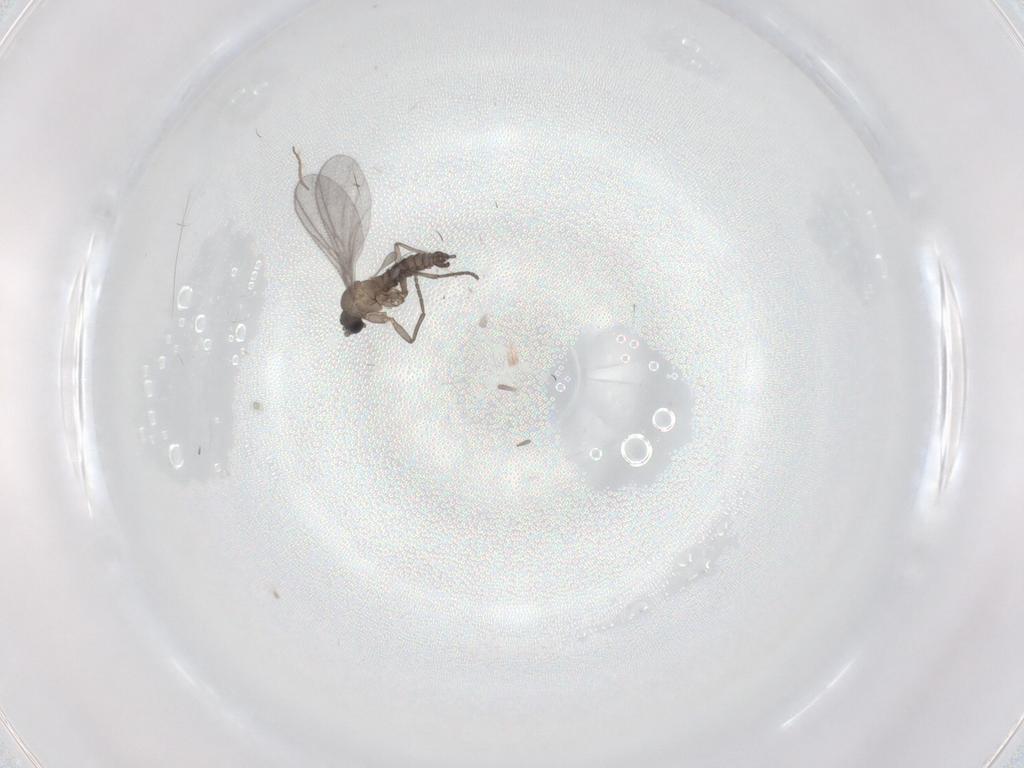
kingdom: Animalia
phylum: Arthropoda
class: Insecta
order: Diptera
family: Sciaridae
